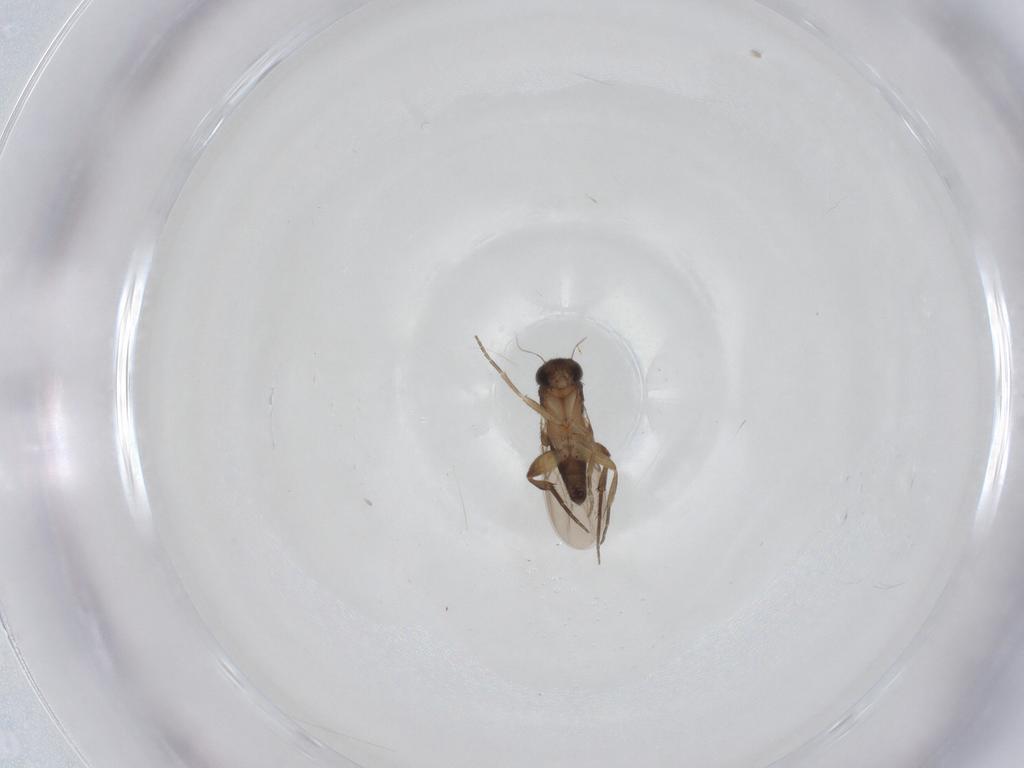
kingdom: Animalia
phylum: Arthropoda
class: Insecta
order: Diptera
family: Phoridae
